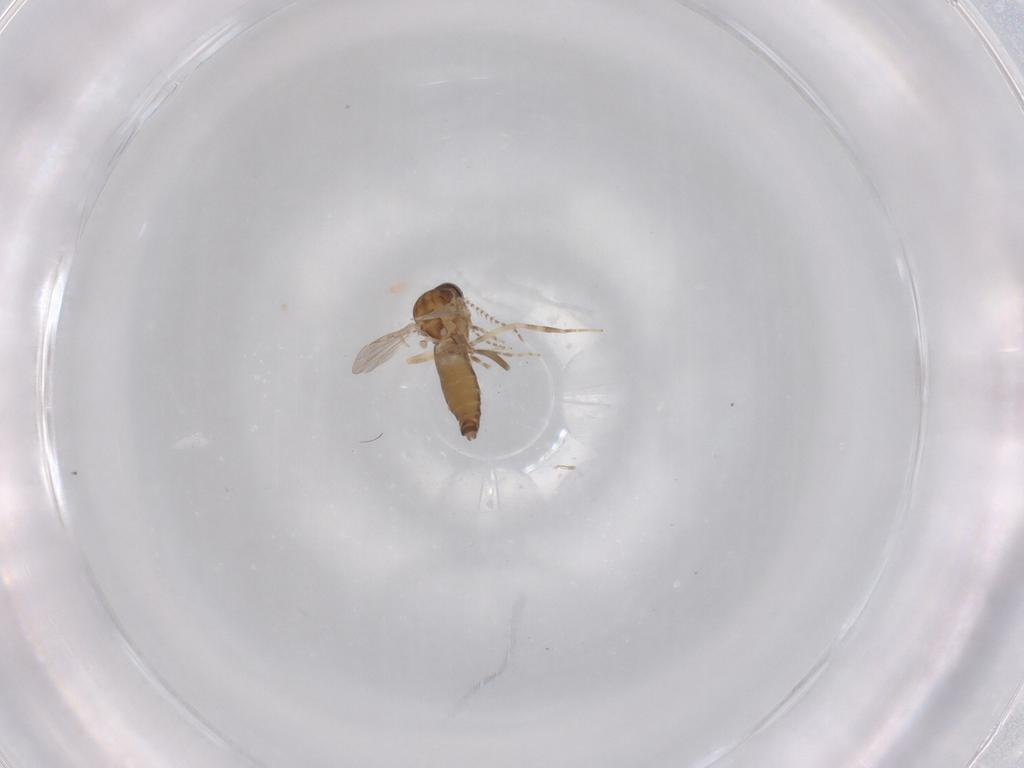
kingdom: Animalia
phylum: Arthropoda
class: Insecta
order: Diptera
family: Ceratopogonidae
